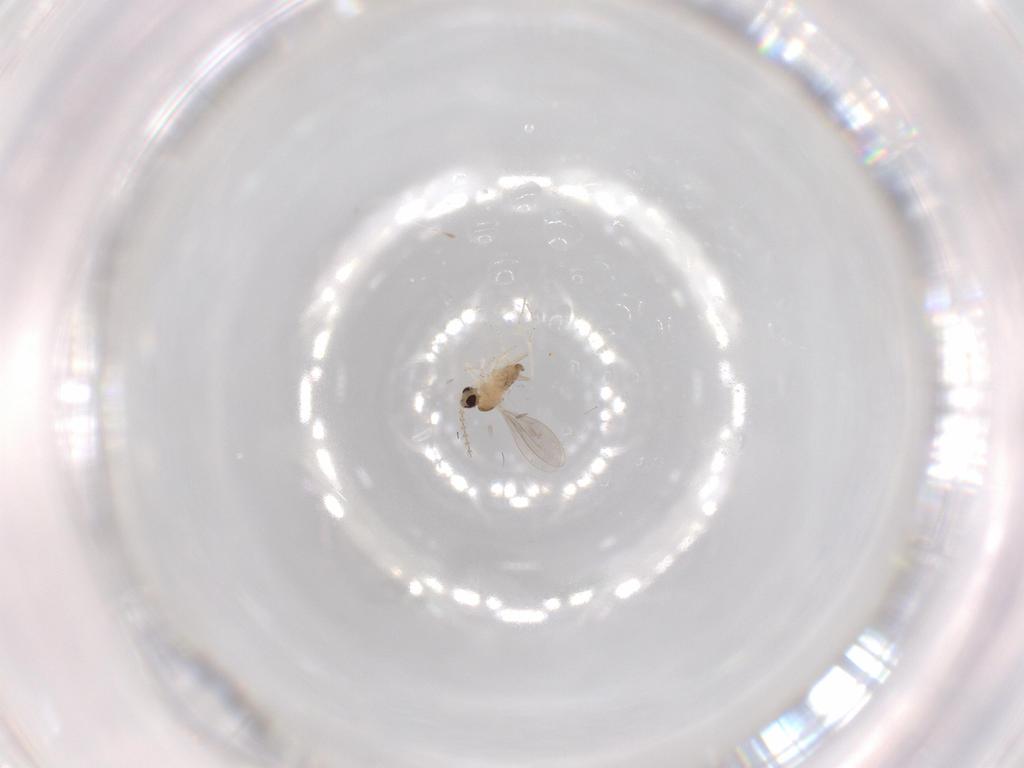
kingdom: Animalia
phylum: Arthropoda
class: Insecta
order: Diptera
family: Cecidomyiidae
